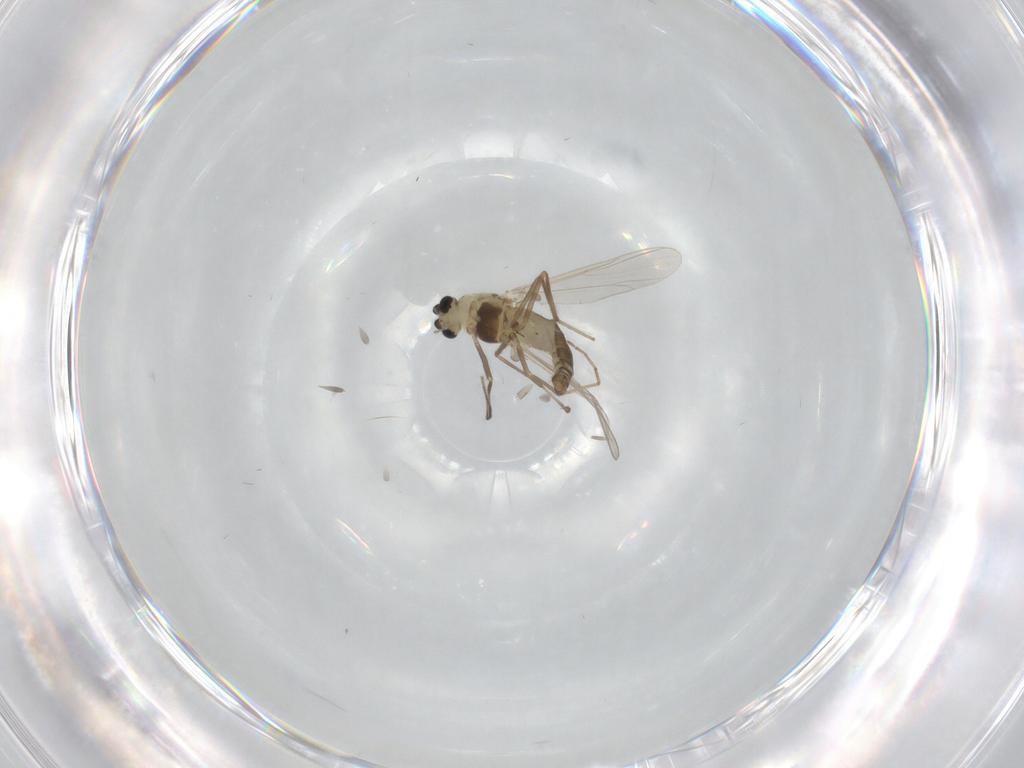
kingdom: Animalia
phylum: Arthropoda
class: Insecta
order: Diptera
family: Chironomidae
